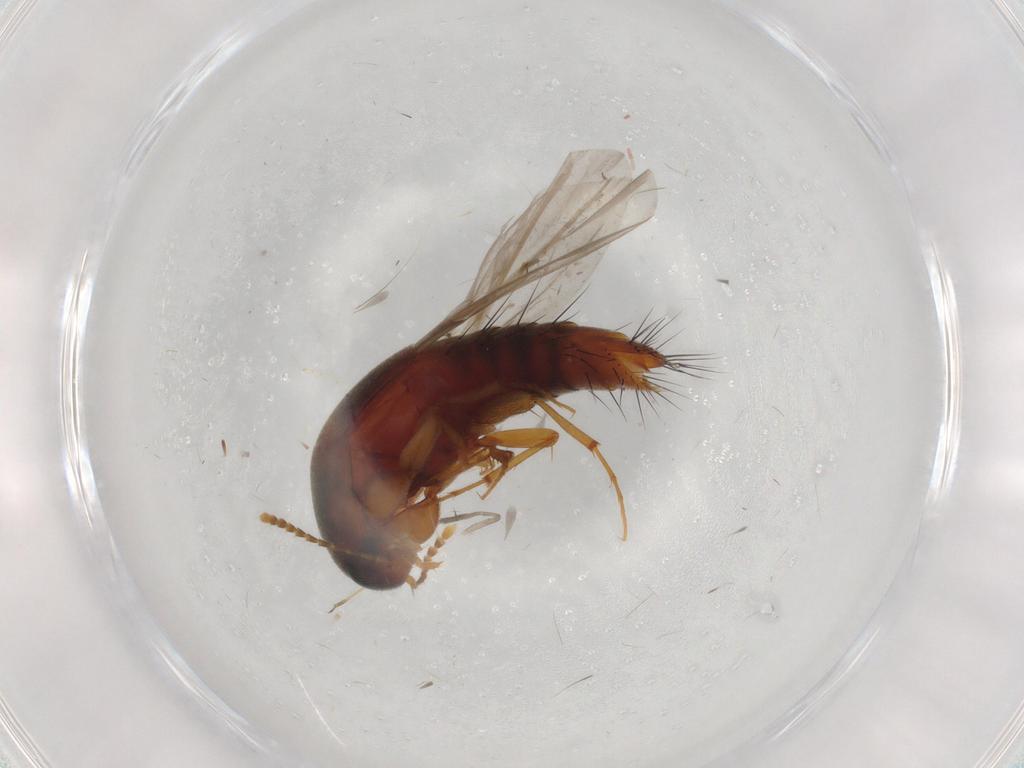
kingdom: Animalia
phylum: Arthropoda
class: Insecta
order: Coleoptera
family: Staphylinidae
